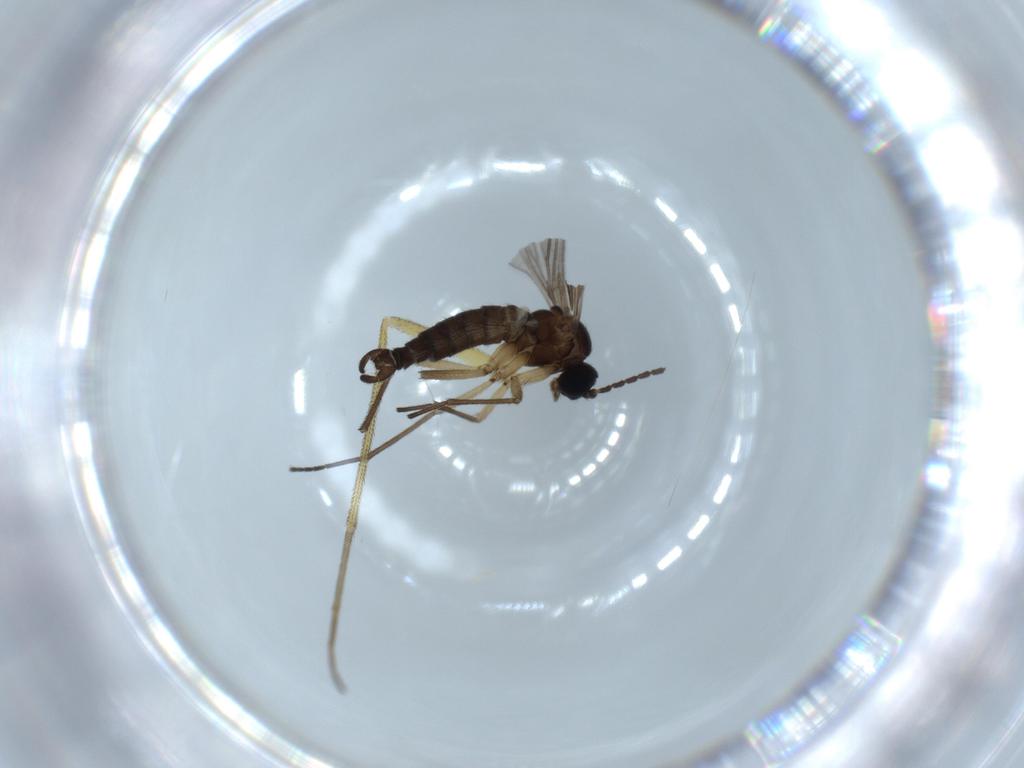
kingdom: Animalia
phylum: Arthropoda
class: Insecta
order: Diptera
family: Dolichopodidae
